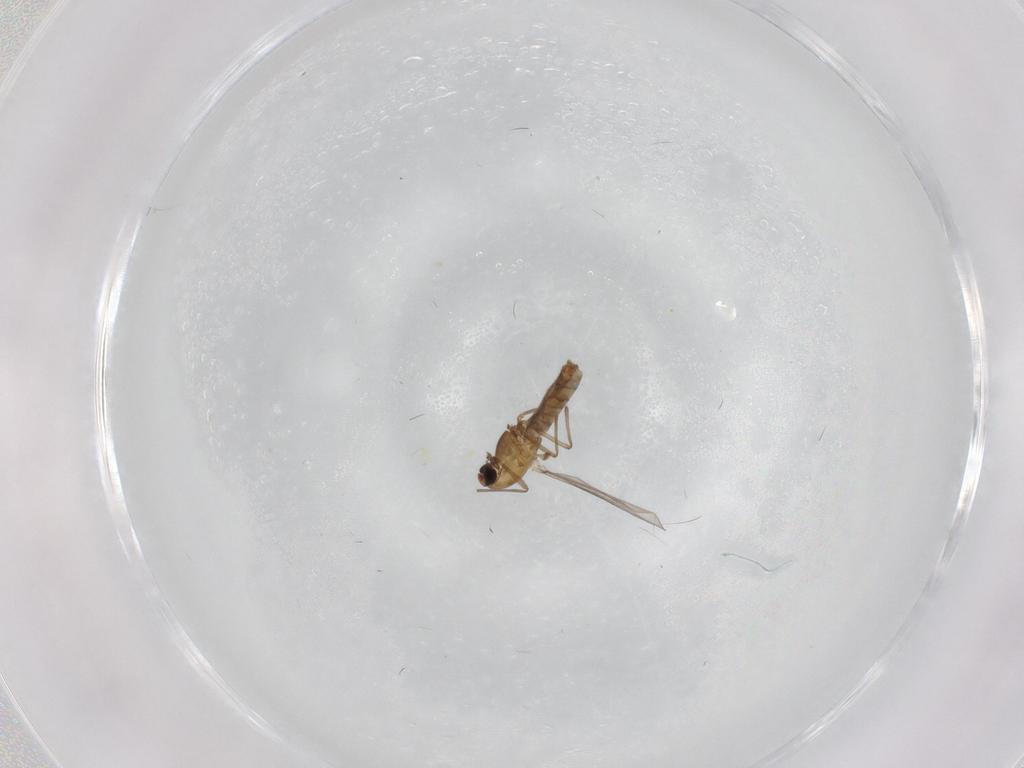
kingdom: Animalia
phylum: Arthropoda
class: Insecta
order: Diptera
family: Chironomidae
